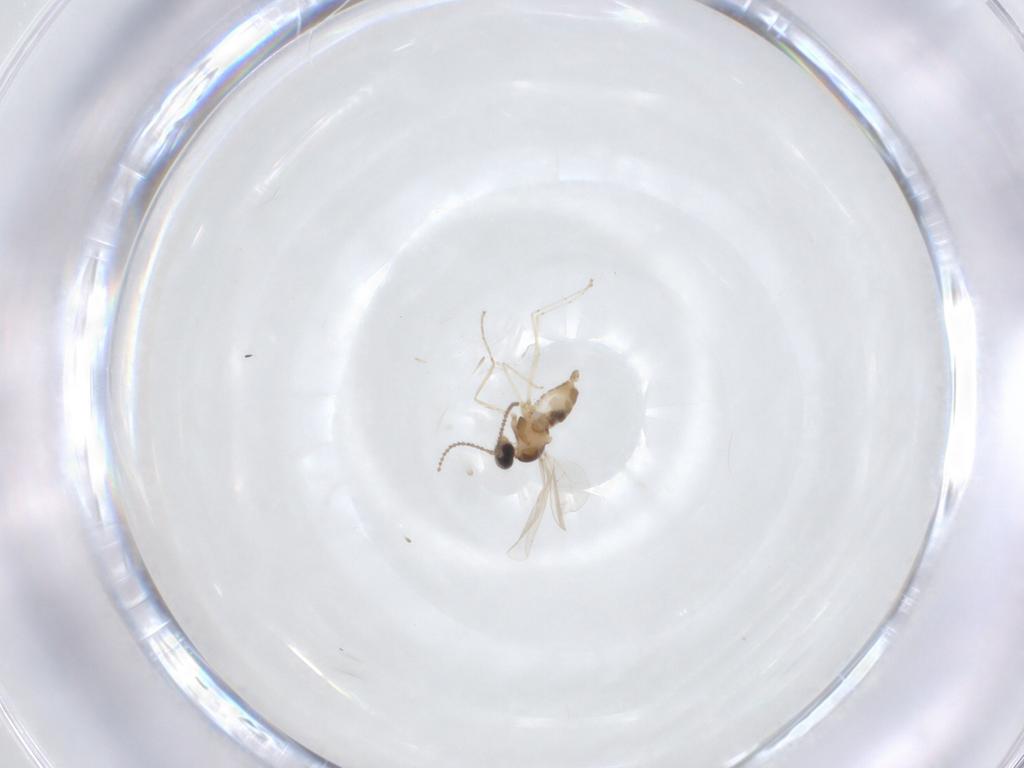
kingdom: Animalia
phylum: Arthropoda
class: Insecta
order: Diptera
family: Cecidomyiidae
